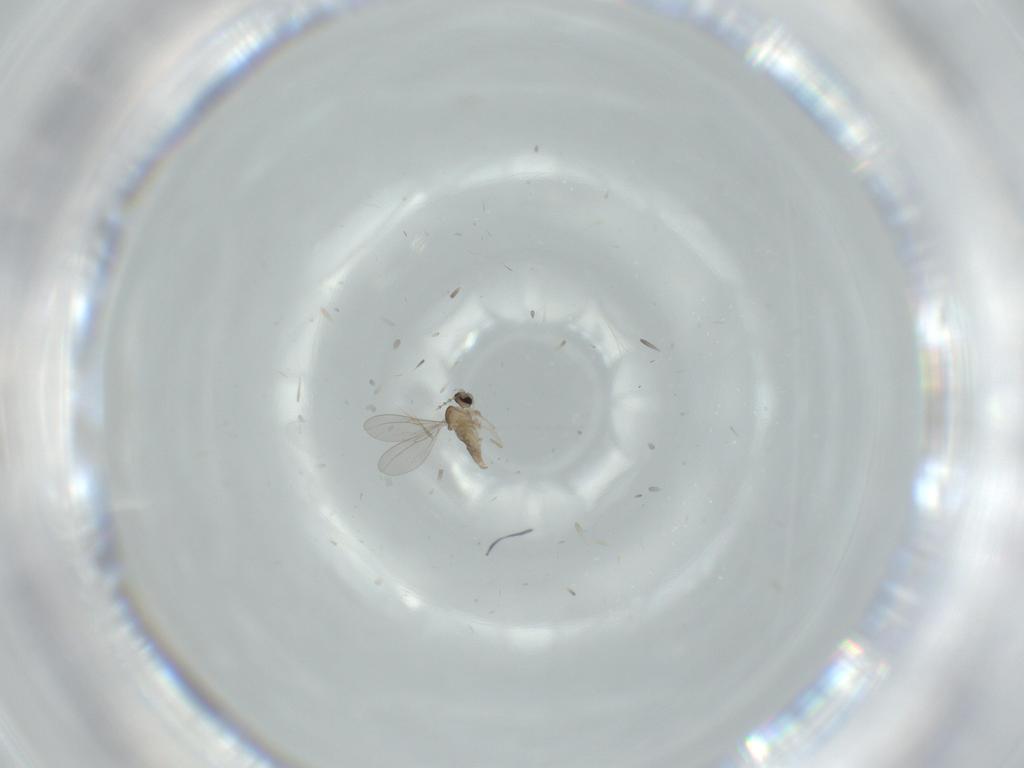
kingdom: Animalia
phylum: Arthropoda
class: Insecta
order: Diptera
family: Cecidomyiidae
